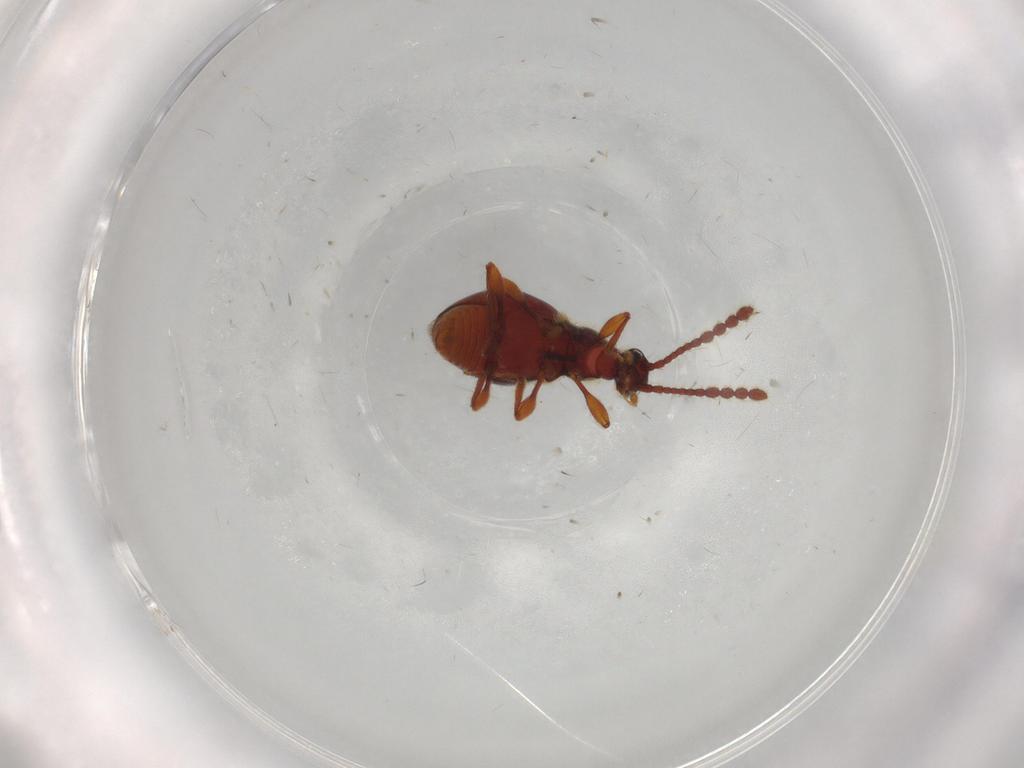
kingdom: Animalia
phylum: Arthropoda
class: Insecta
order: Coleoptera
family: Staphylinidae
